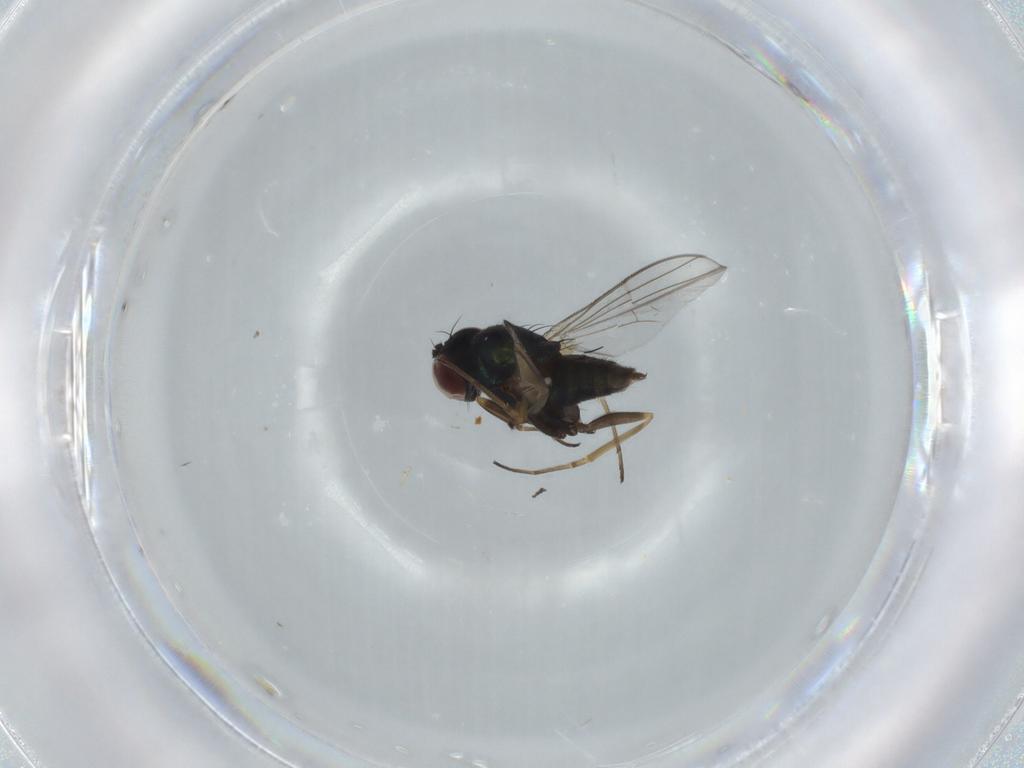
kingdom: Animalia
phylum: Arthropoda
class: Insecta
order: Diptera
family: Dolichopodidae
